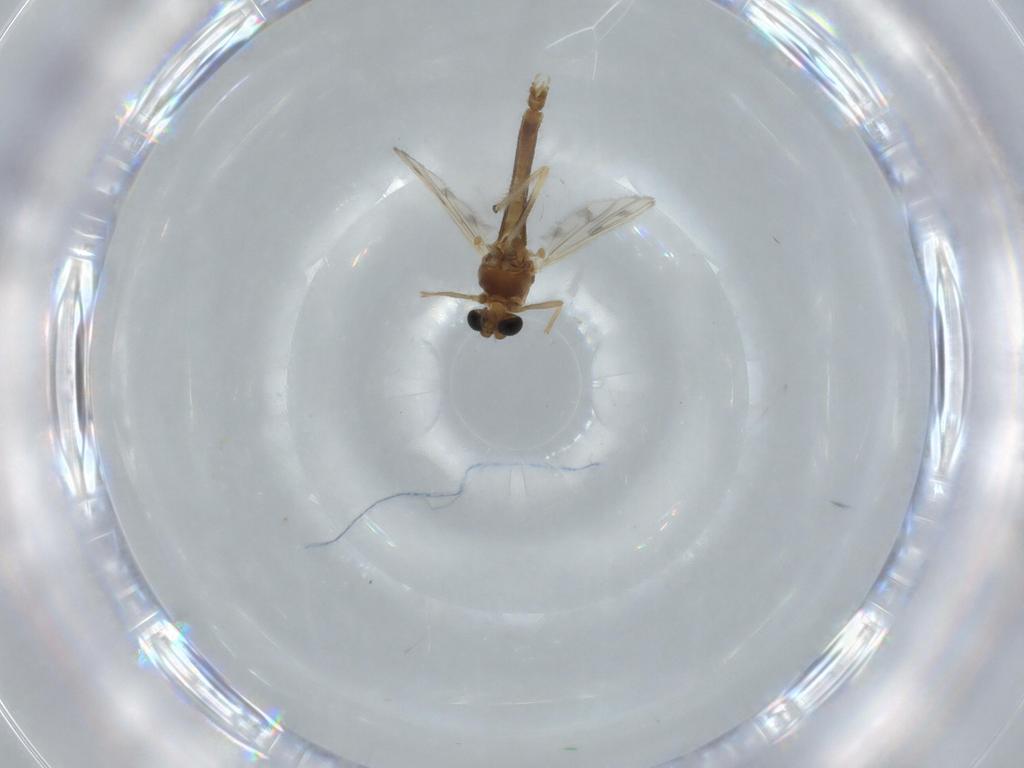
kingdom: Animalia
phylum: Arthropoda
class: Insecta
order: Diptera
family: Chironomidae
